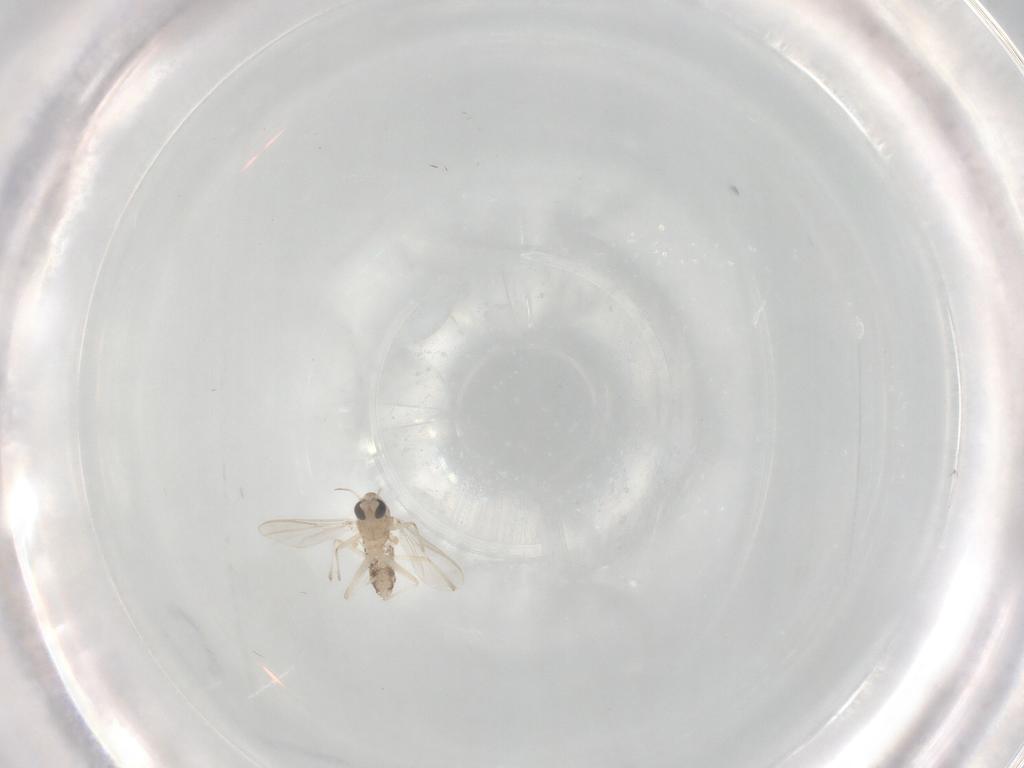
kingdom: Animalia
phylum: Arthropoda
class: Insecta
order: Diptera
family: Chironomidae
